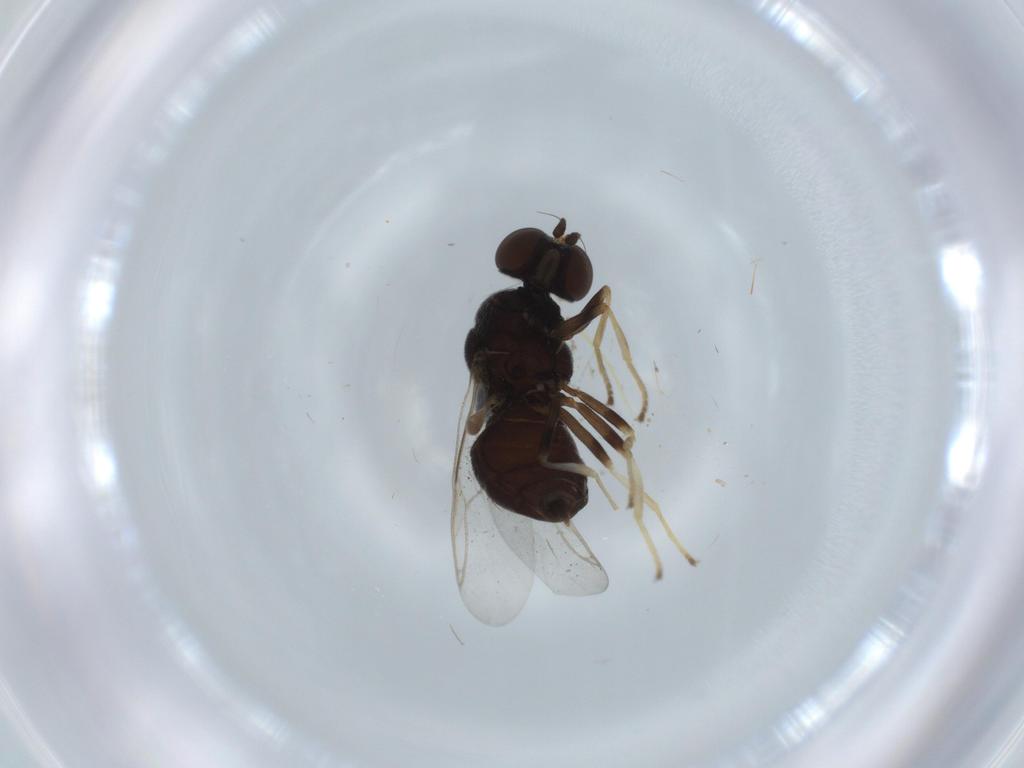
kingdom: Animalia
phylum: Arthropoda
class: Insecta
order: Diptera
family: Stratiomyidae
